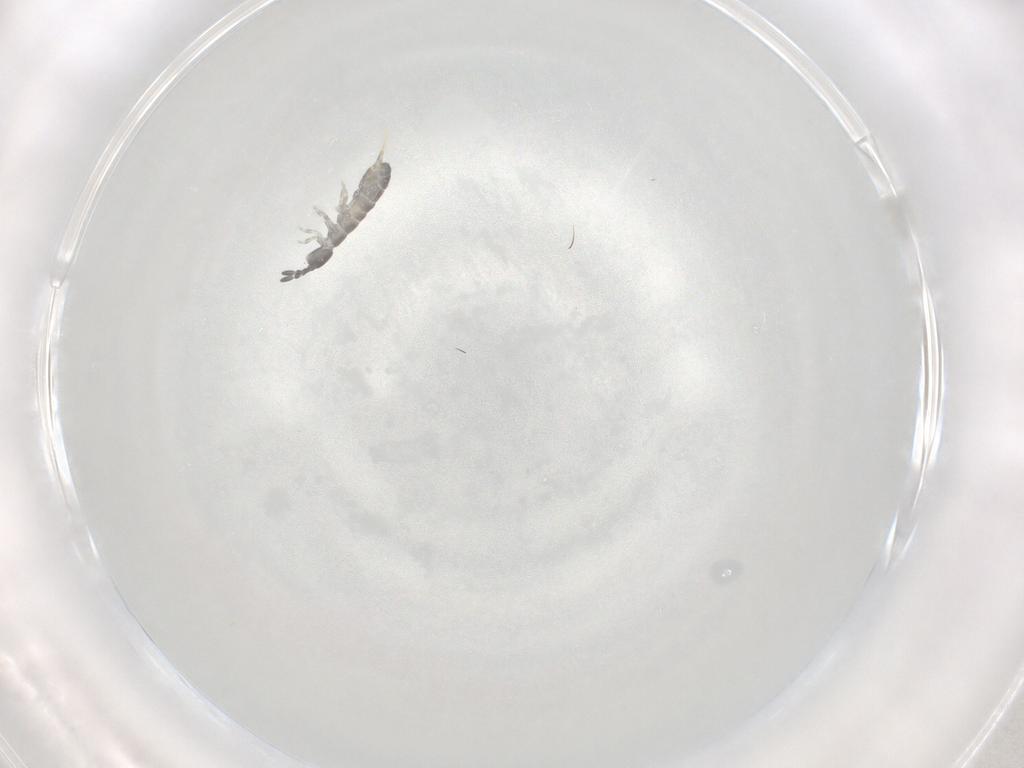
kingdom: Animalia
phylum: Arthropoda
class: Collembola
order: Entomobryomorpha
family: Isotomidae
